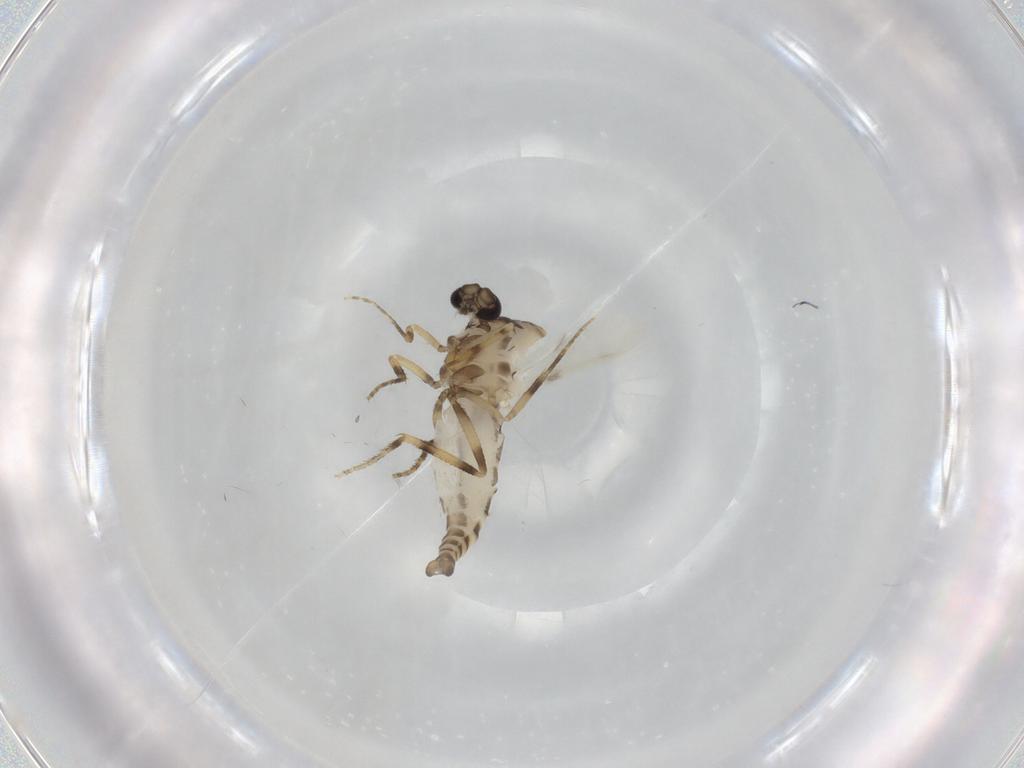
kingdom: Animalia
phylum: Arthropoda
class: Insecta
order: Diptera
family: Ceratopogonidae
